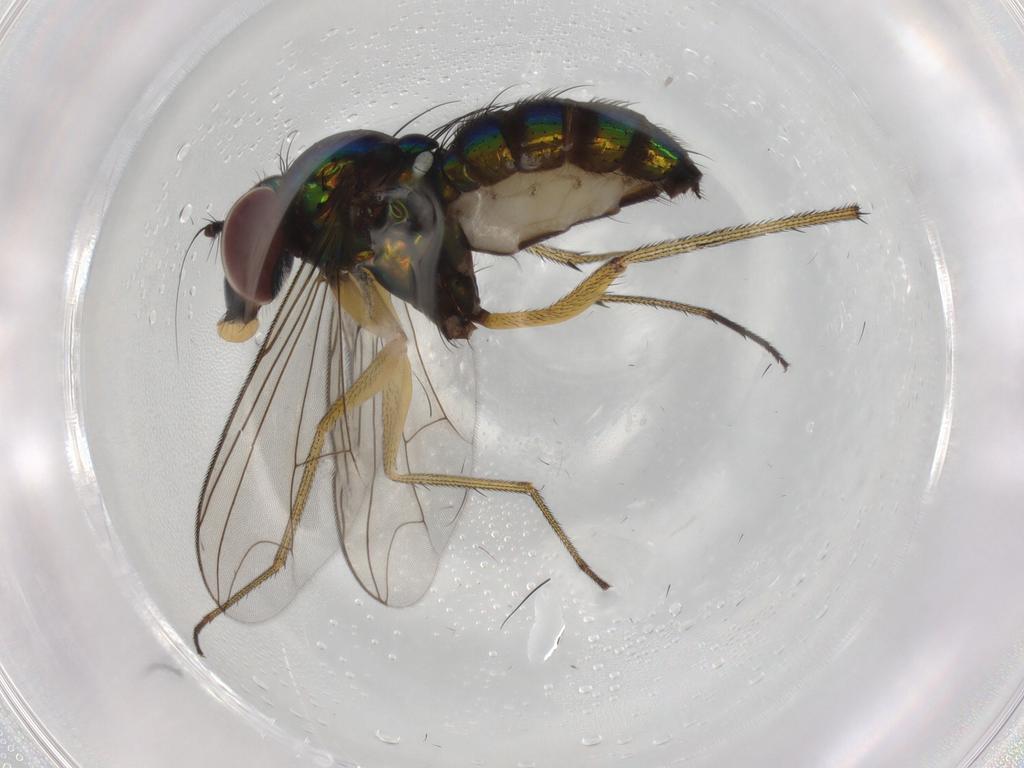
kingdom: Animalia
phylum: Arthropoda
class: Insecta
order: Diptera
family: Dolichopodidae
